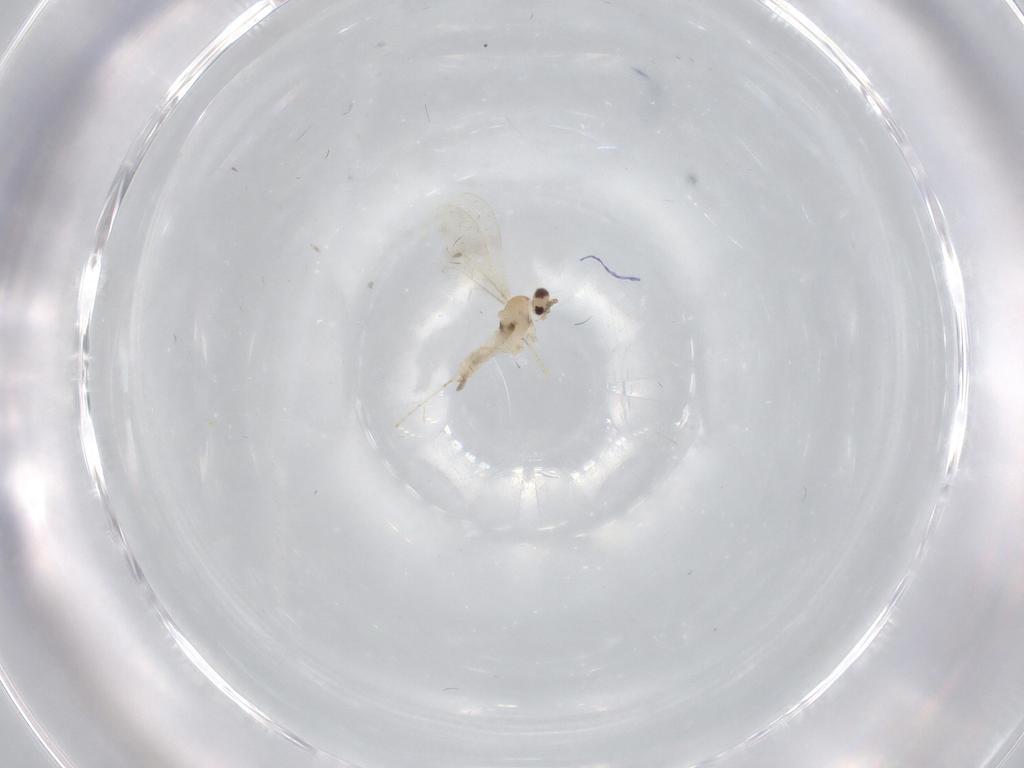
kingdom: Animalia
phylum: Arthropoda
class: Insecta
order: Diptera
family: Cecidomyiidae
